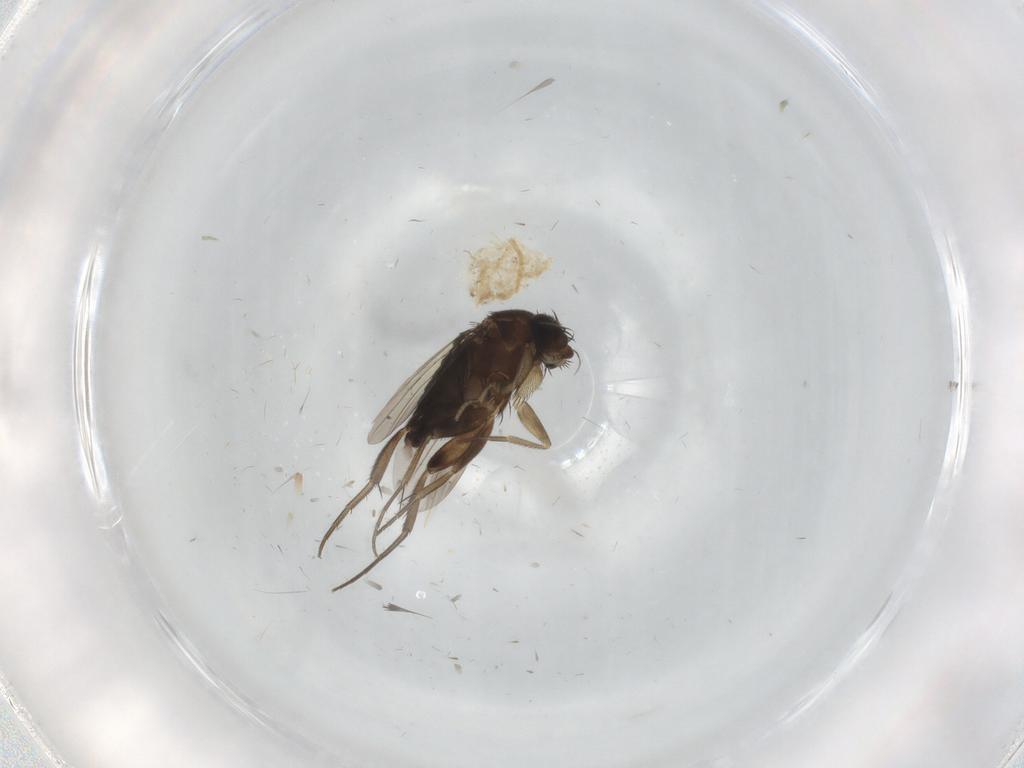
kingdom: Animalia
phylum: Arthropoda
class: Insecta
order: Diptera
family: Phoridae
